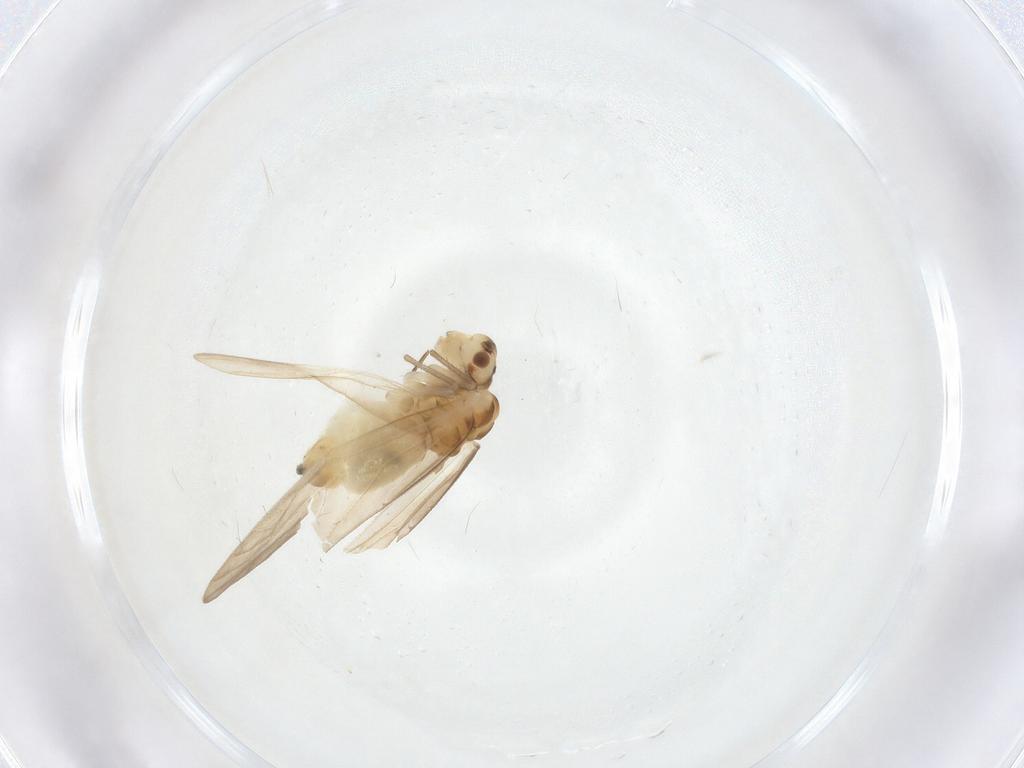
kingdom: Animalia
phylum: Arthropoda
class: Insecta
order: Psocodea
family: Caeciliusidae
